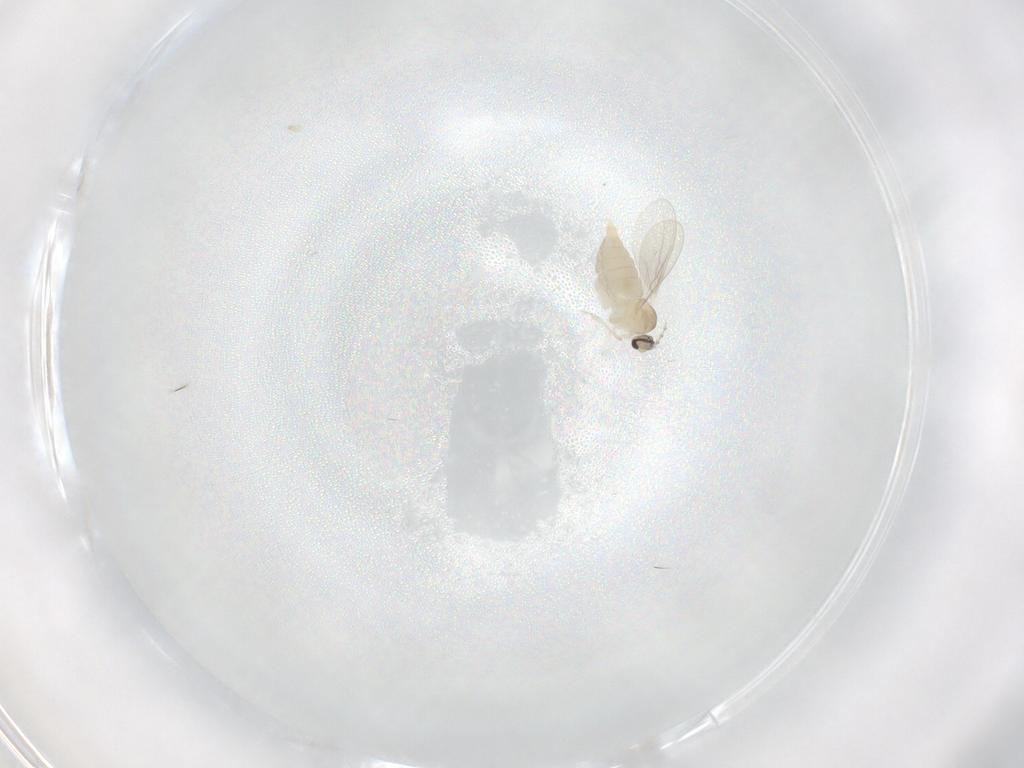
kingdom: Animalia
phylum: Arthropoda
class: Insecta
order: Diptera
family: Cecidomyiidae
